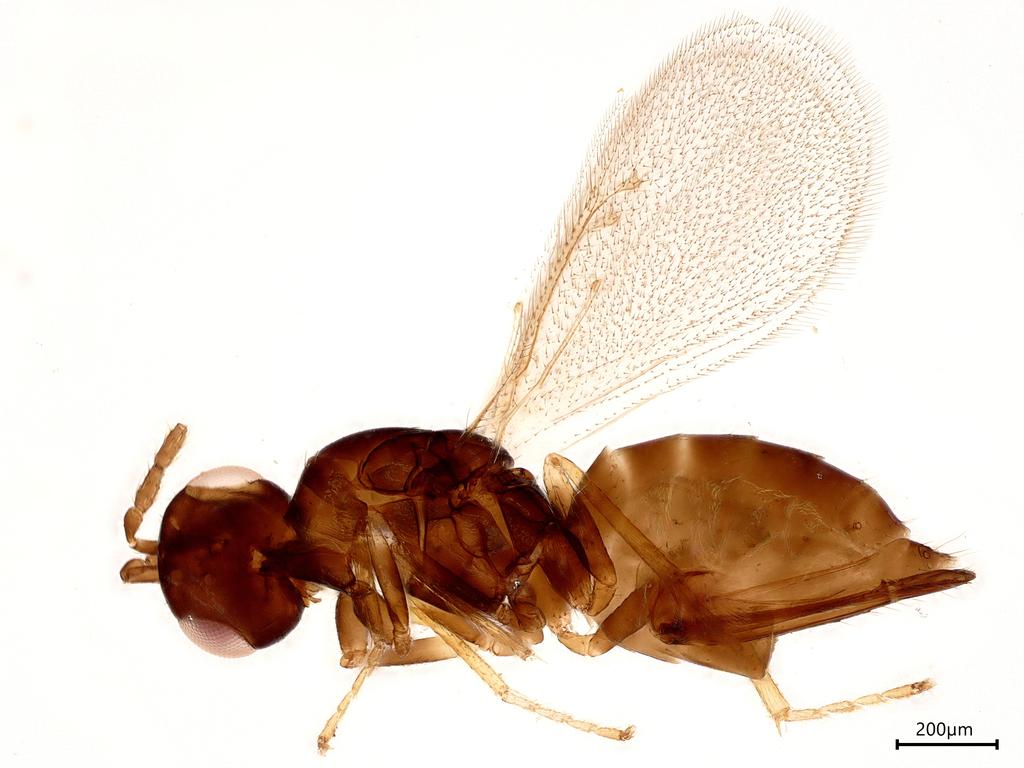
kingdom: Animalia
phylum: Arthropoda
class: Insecta
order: Hymenoptera
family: Eulophidae
